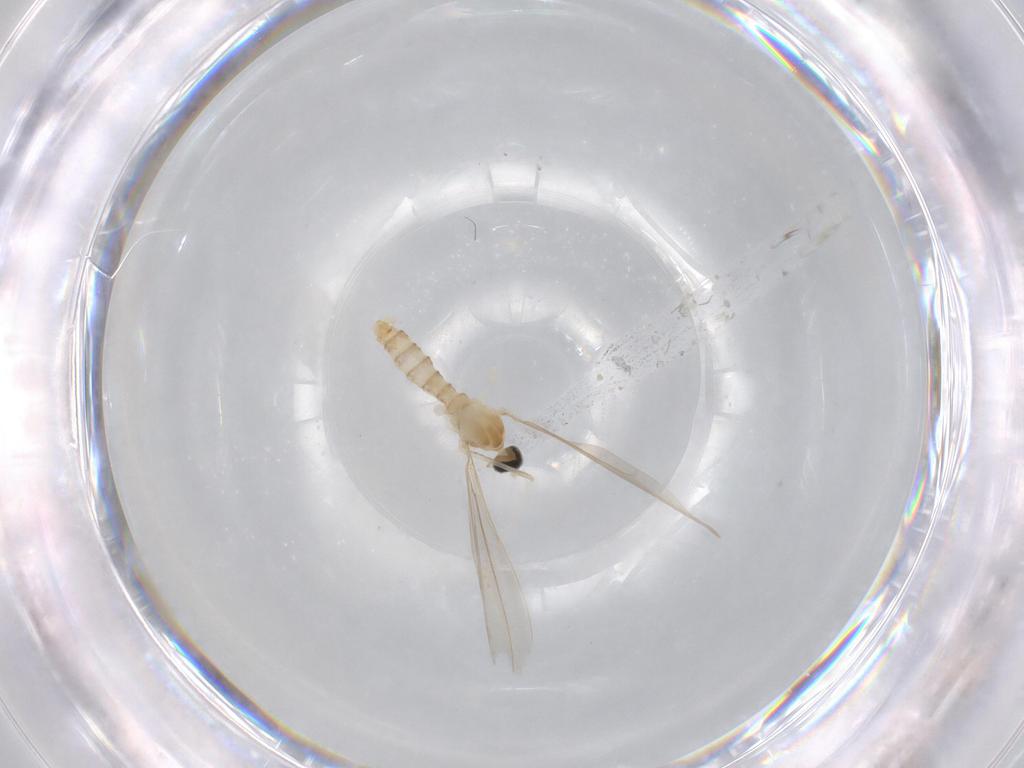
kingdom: Animalia
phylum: Arthropoda
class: Insecta
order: Diptera
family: Cecidomyiidae
